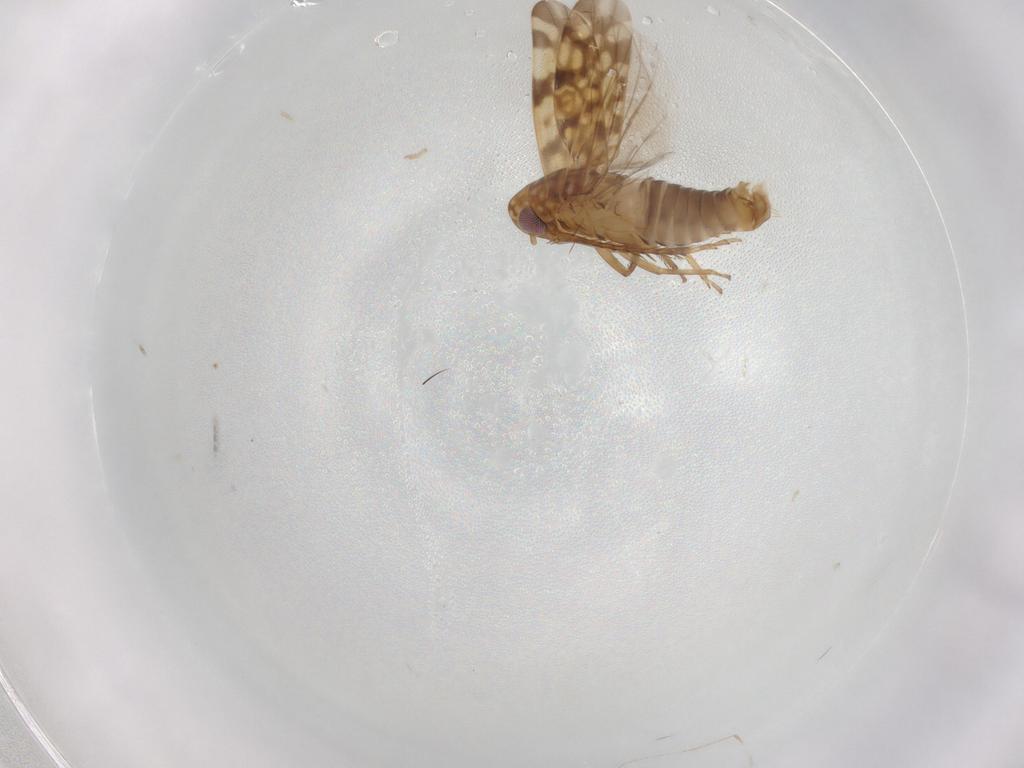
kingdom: Animalia
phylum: Arthropoda
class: Insecta
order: Hemiptera
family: Cicadellidae
